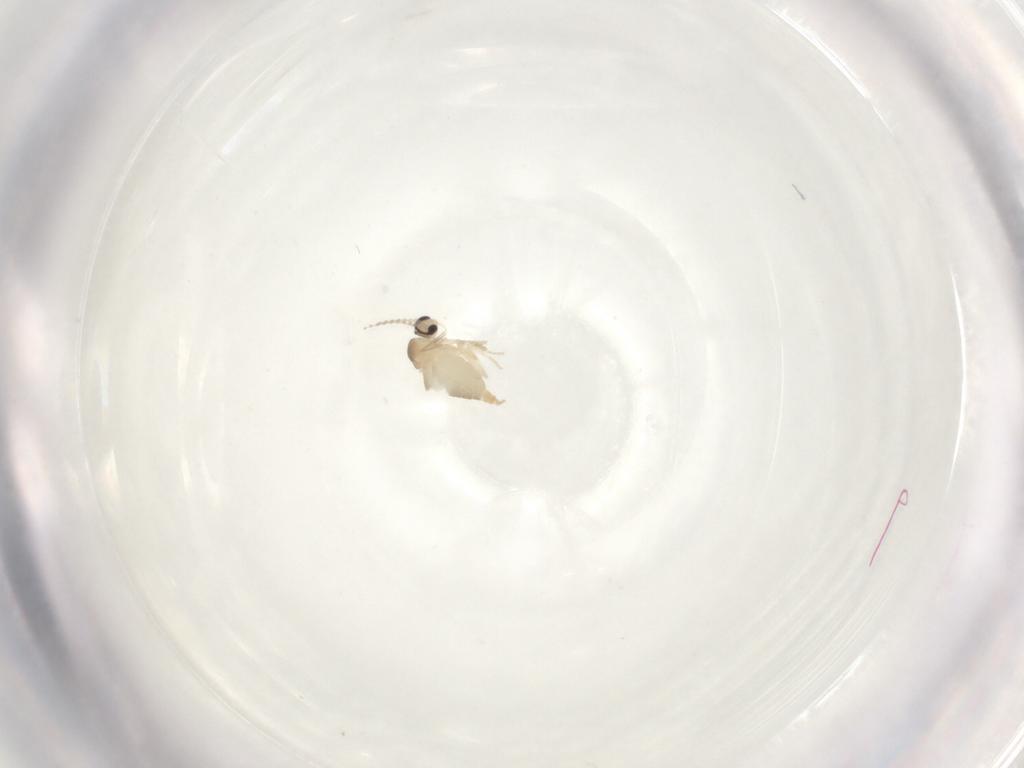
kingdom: Animalia
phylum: Arthropoda
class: Insecta
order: Diptera
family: Cecidomyiidae
